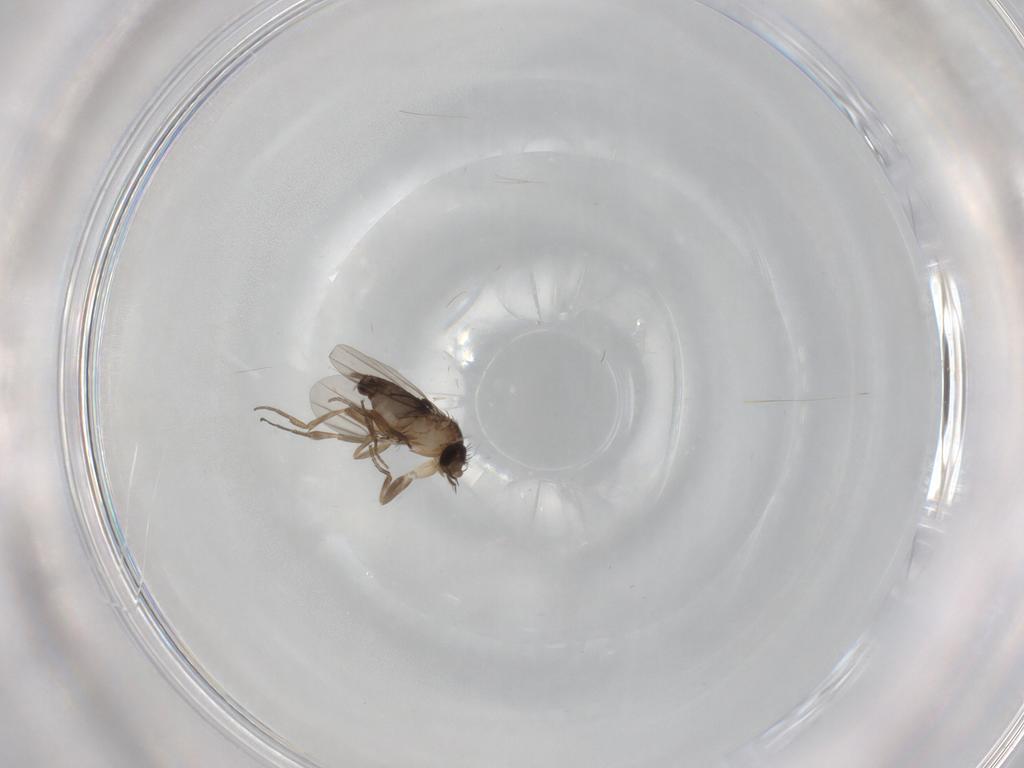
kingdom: Animalia
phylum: Arthropoda
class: Insecta
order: Diptera
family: Phoridae
